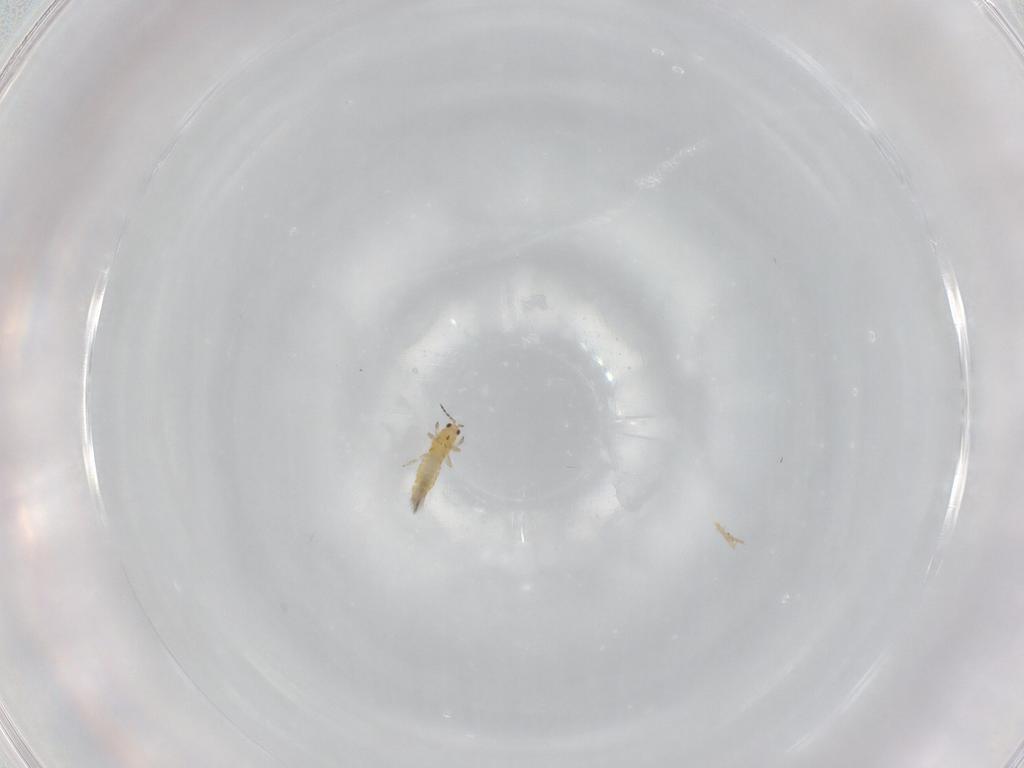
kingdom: Animalia
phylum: Arthropoda
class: Insecta
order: Thysanoptera
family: Thripidae
